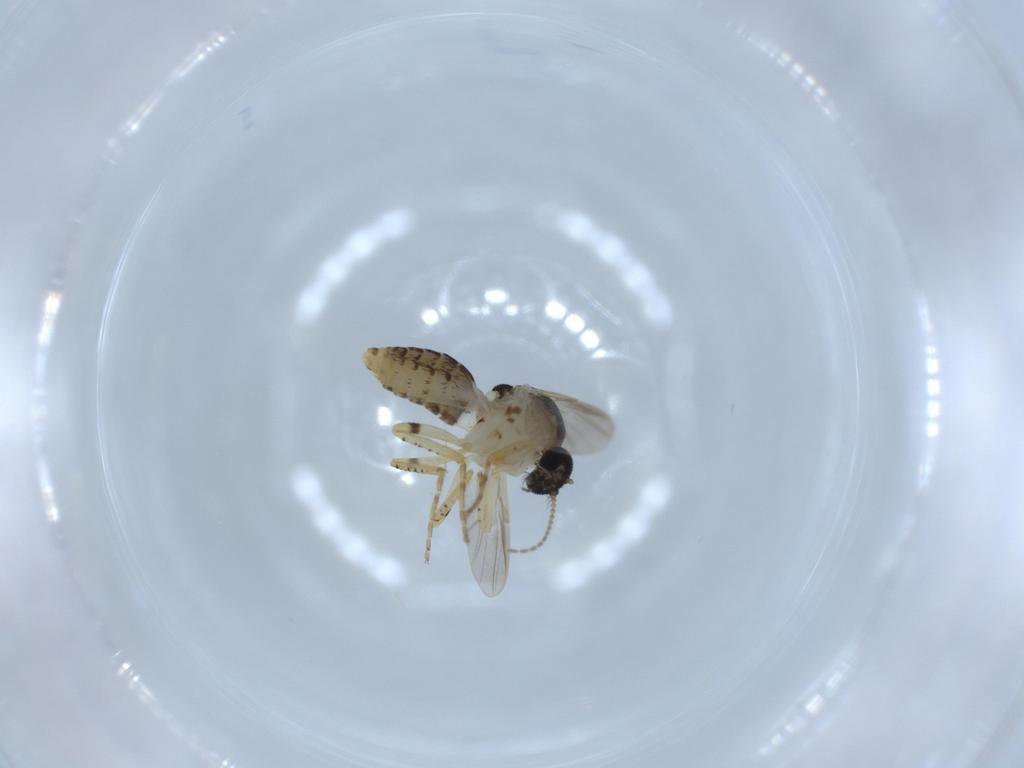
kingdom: Animalia
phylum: Arthropoda
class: Insecta
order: Diptera
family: Ceratopogonidae
